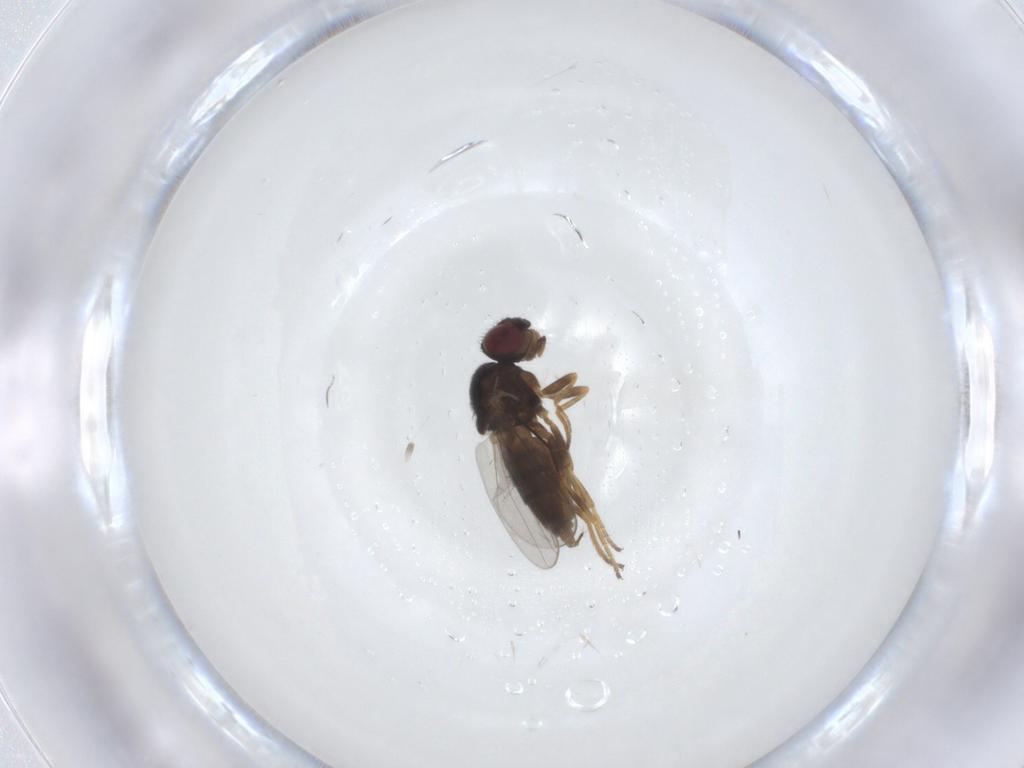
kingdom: Animalia
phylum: Arthropoda
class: Insecta
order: Diptera
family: Chloropidae
